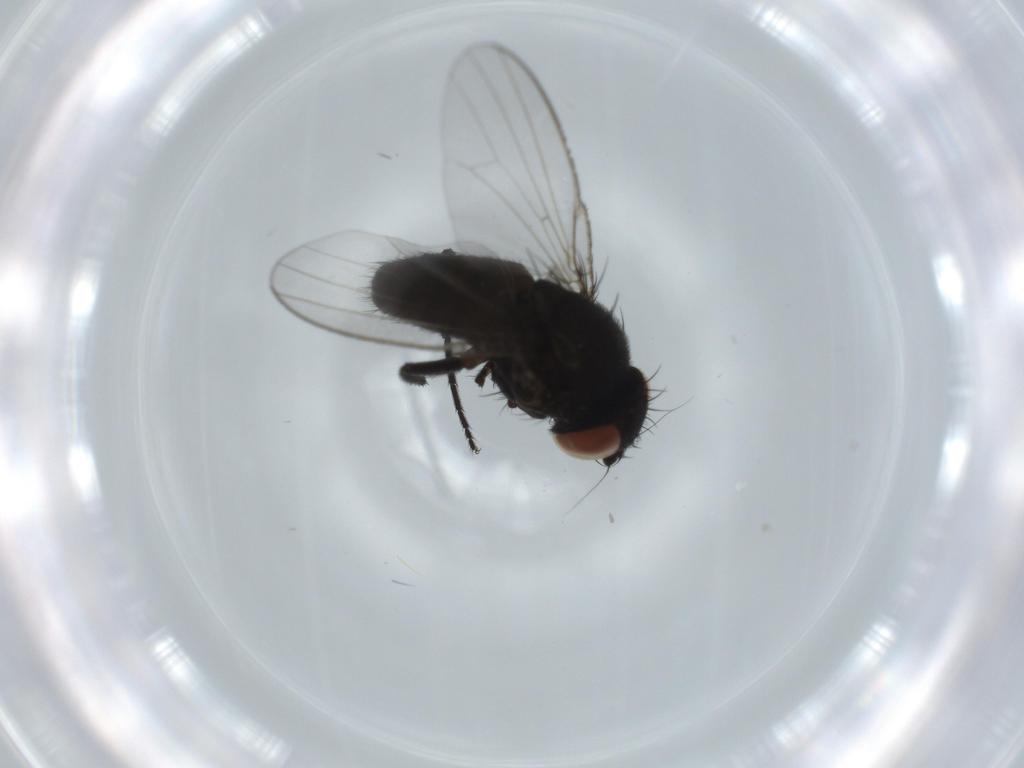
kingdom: Animalia
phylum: Arthropoda
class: Insecta
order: Diptera
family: Milichiidae
